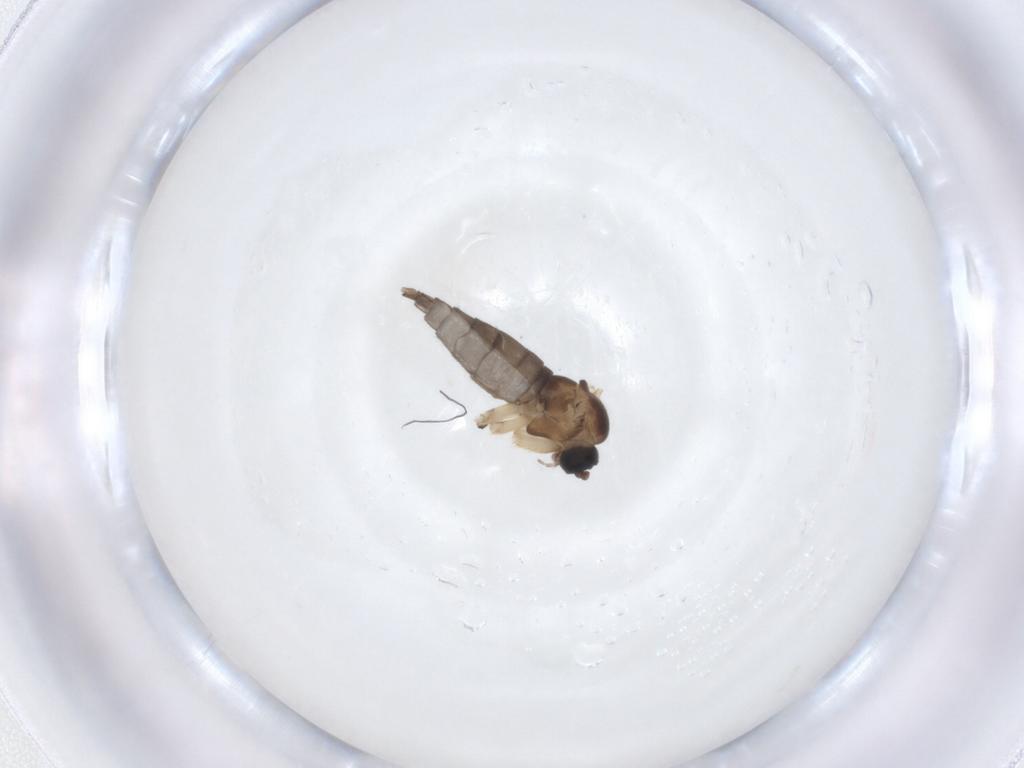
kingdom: Animalia
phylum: Arthropoda
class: Insecta
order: Diptera
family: Sciaridae
